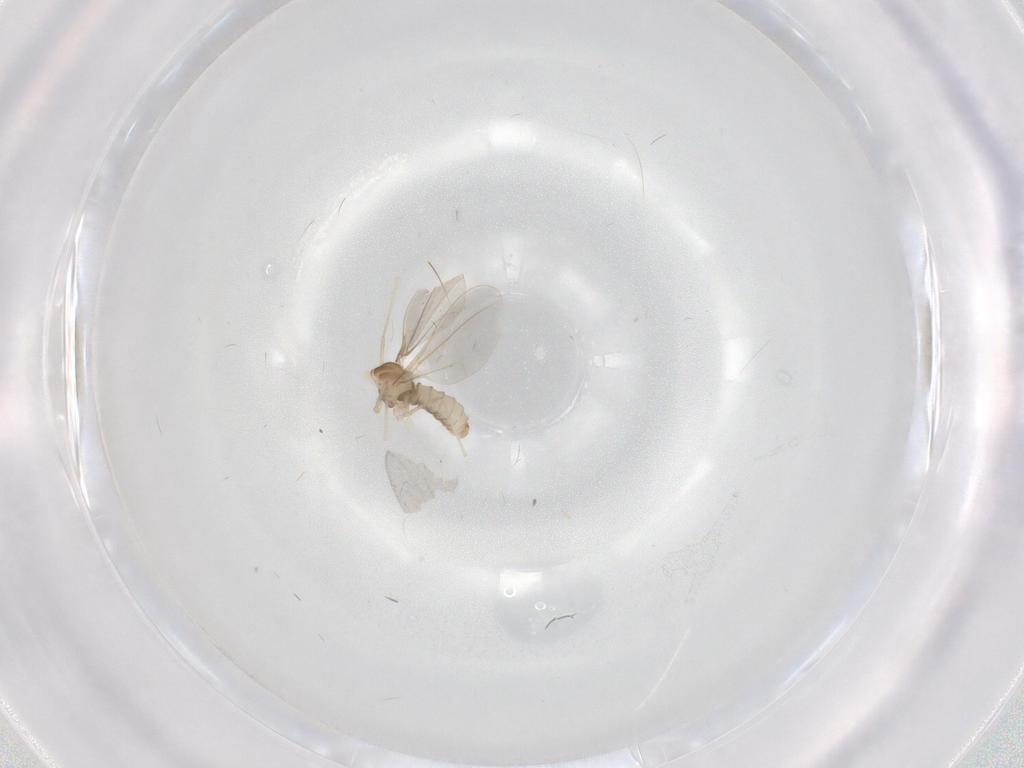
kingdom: Animalia
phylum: Arthropoda
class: Insecta
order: Diptera
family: Cecidomyiidae
